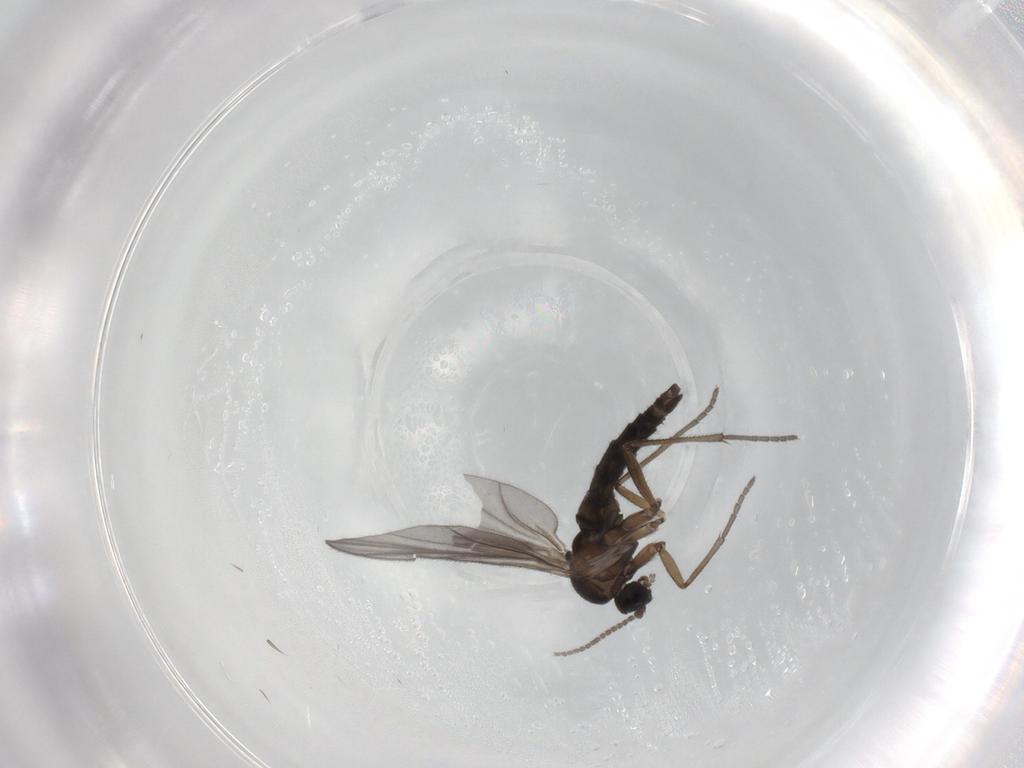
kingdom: Animalia
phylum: Arthropoda
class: Insecta
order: Diptera
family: Sciaridae
